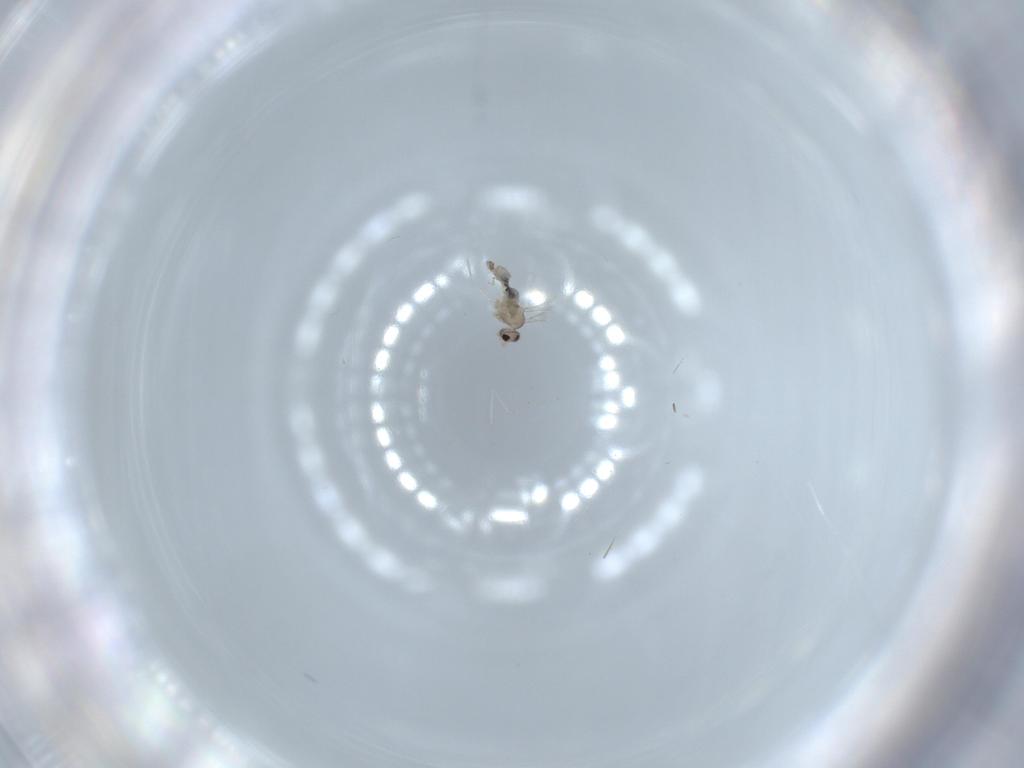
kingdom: Animalia
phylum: Arthropoda
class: Insecta
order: Diptera
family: Cecidomyiidae
